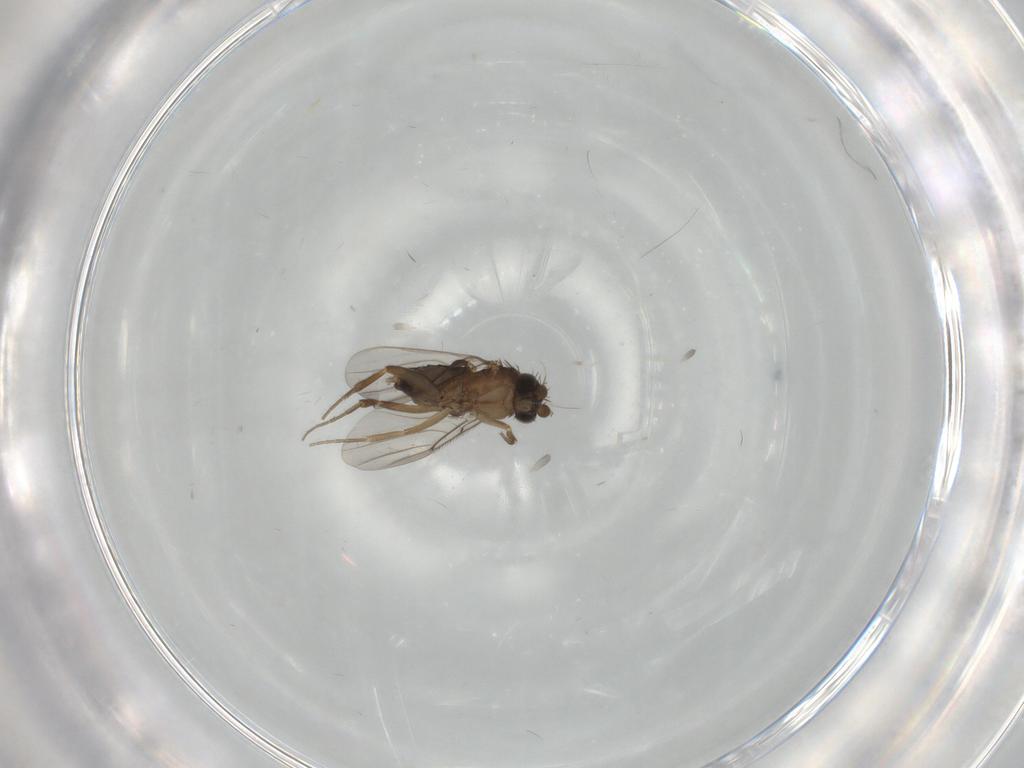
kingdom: Animalia
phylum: Arthropoda
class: Insecta
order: Diptera
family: Phoridae
